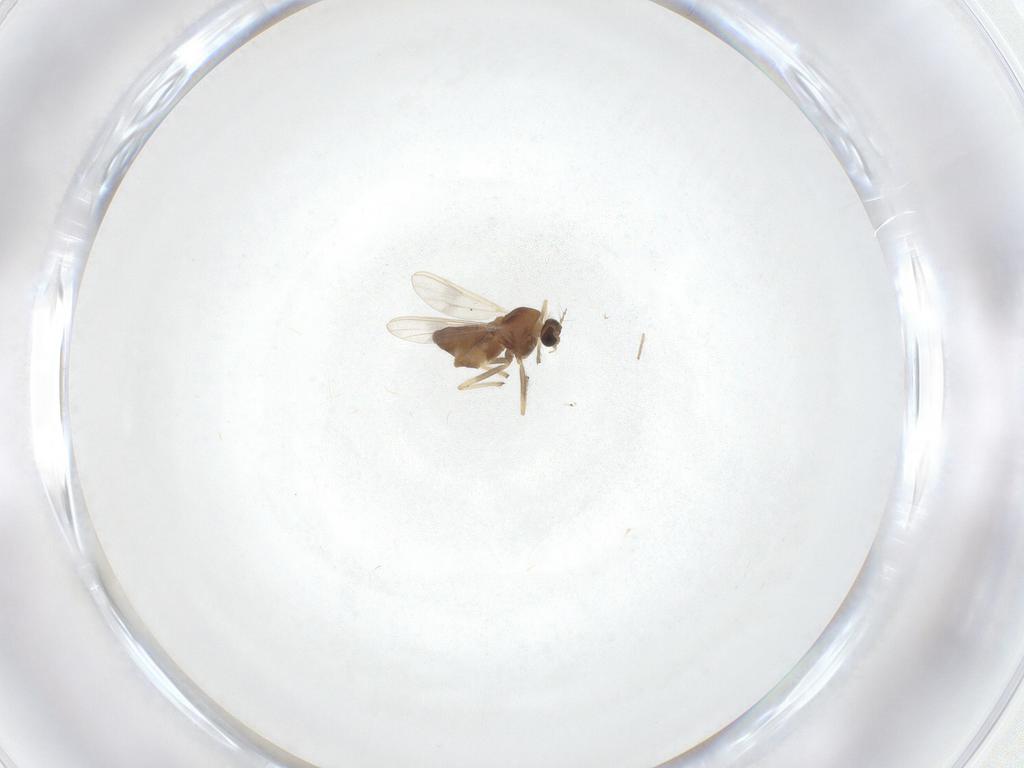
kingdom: Animalia
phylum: Arthropoda
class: Insecta
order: Diptera
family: Chironomidae
